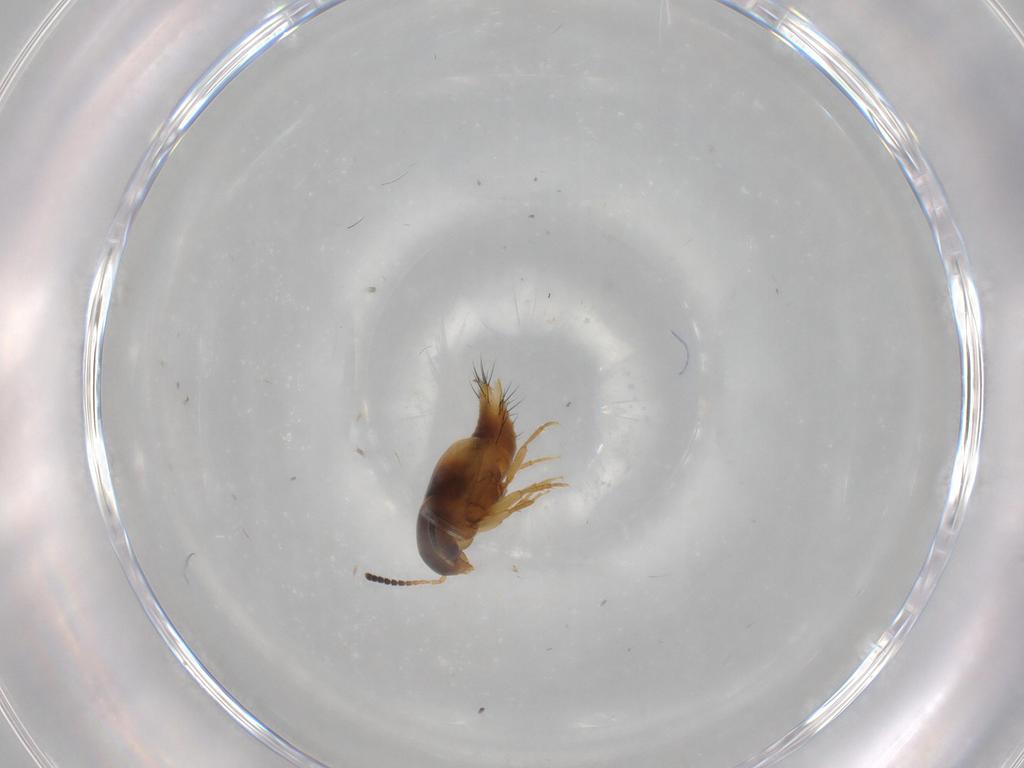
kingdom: Animalia
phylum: Arthropoda
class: Insecta
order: Coleoptera
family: Staphylinidae
